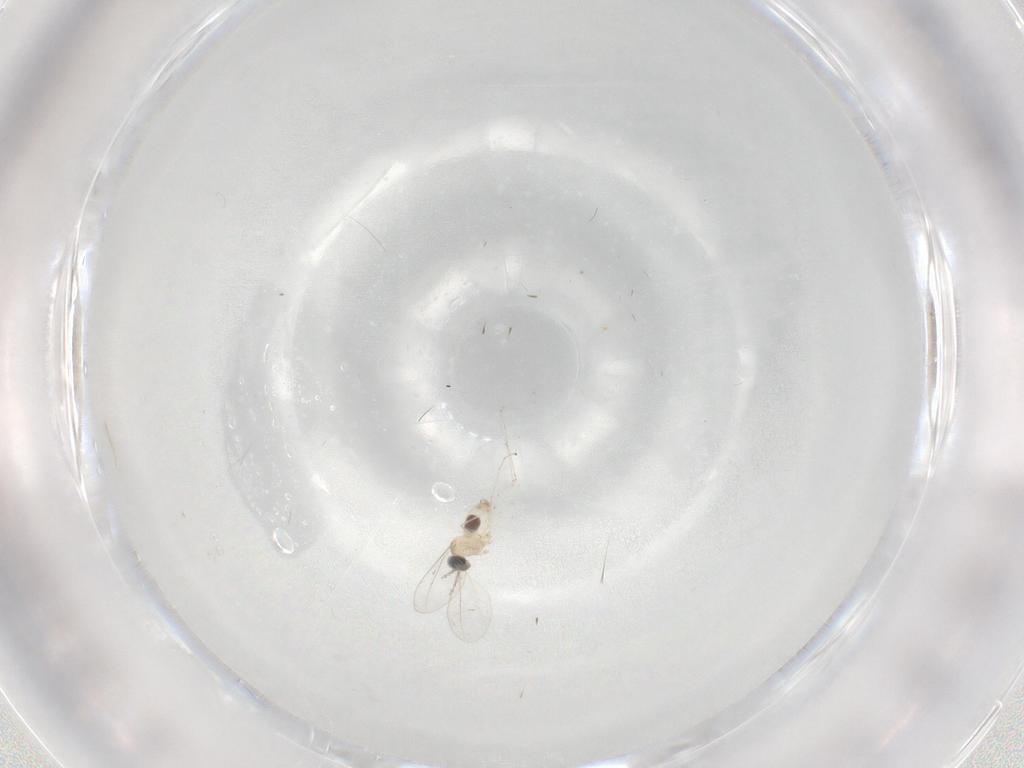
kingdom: Animalia
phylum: Arthropoda
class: Insecta
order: Diptera
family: Cecidomyiidae
